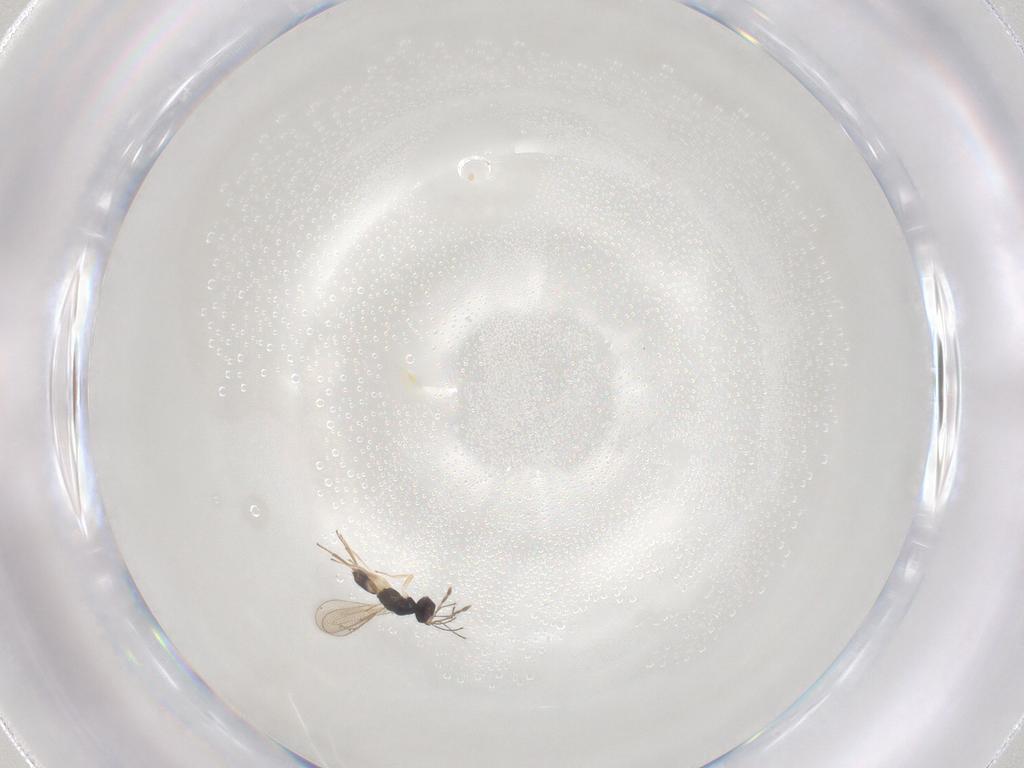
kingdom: Animalia
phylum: Arthropoda
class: Insecta
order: Hymenoptera
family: Eulophidae
